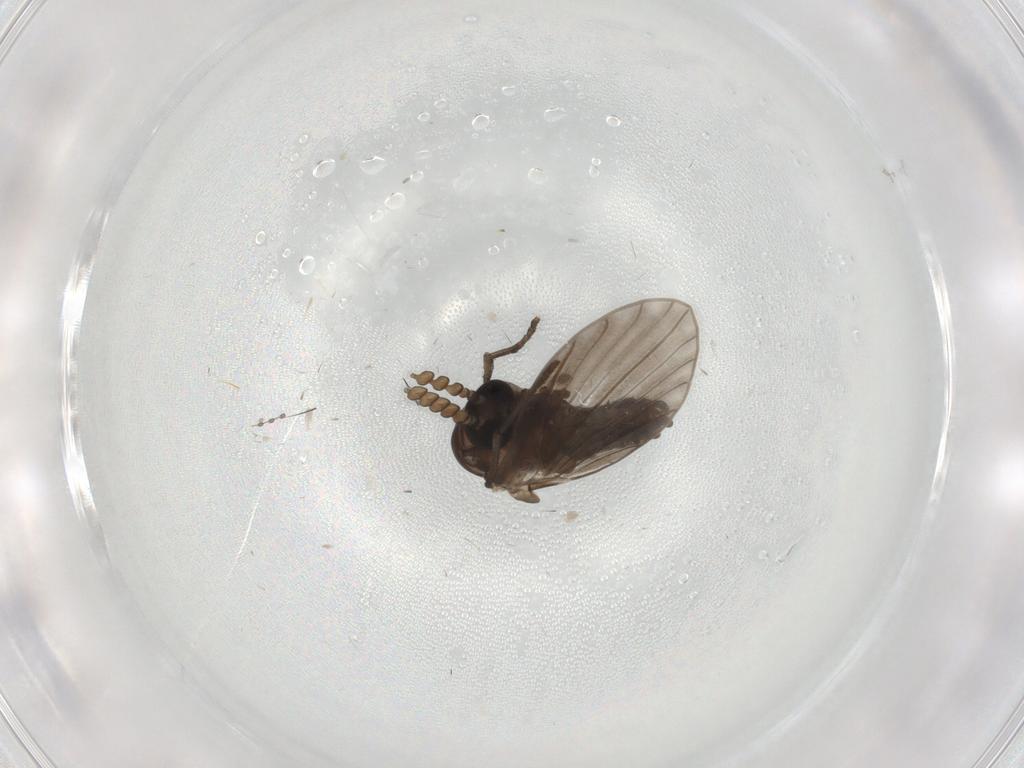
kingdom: Animalia
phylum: Arthropoda
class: Insecta
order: Diptera
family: Psychodidae
